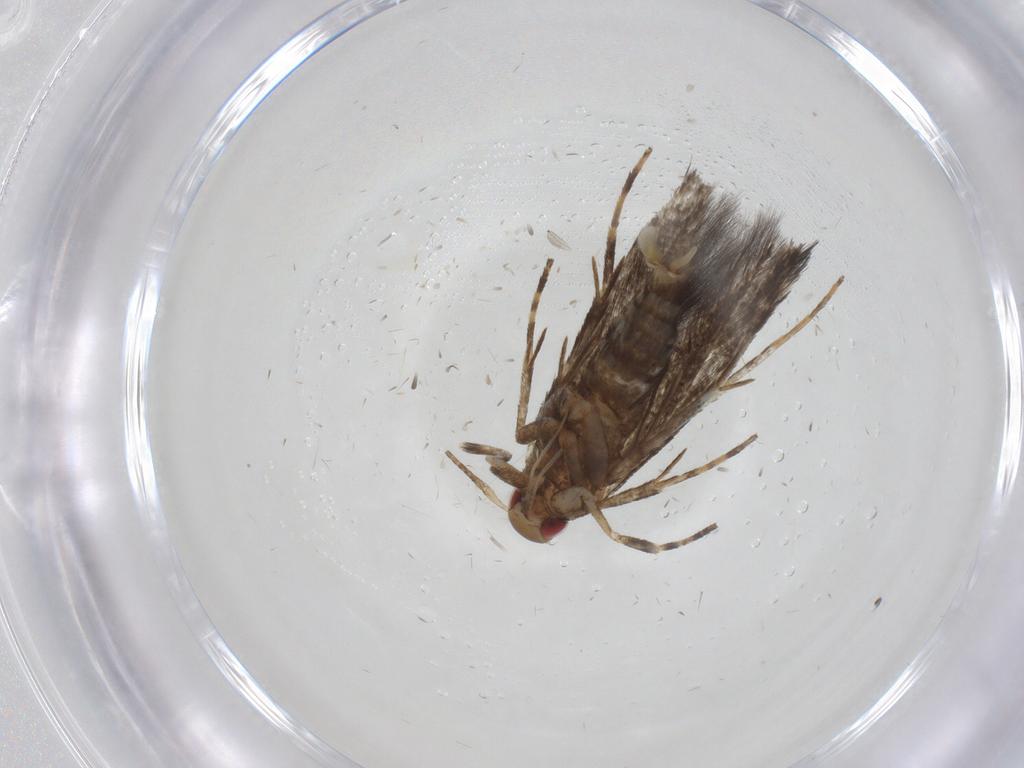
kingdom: Animalia
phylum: Arthropoda
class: Insecta
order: Lepidoptera
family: Cosmopterigidae
